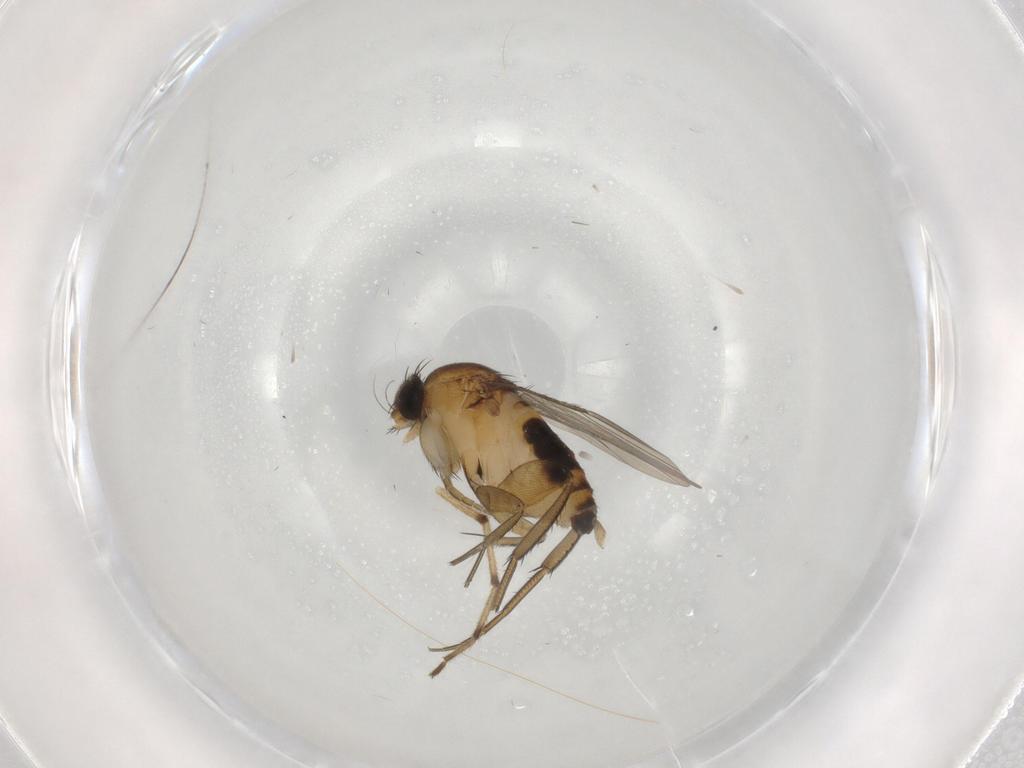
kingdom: Animalia
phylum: Arthropoda
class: Insecta
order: Diptera
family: Phoridae
